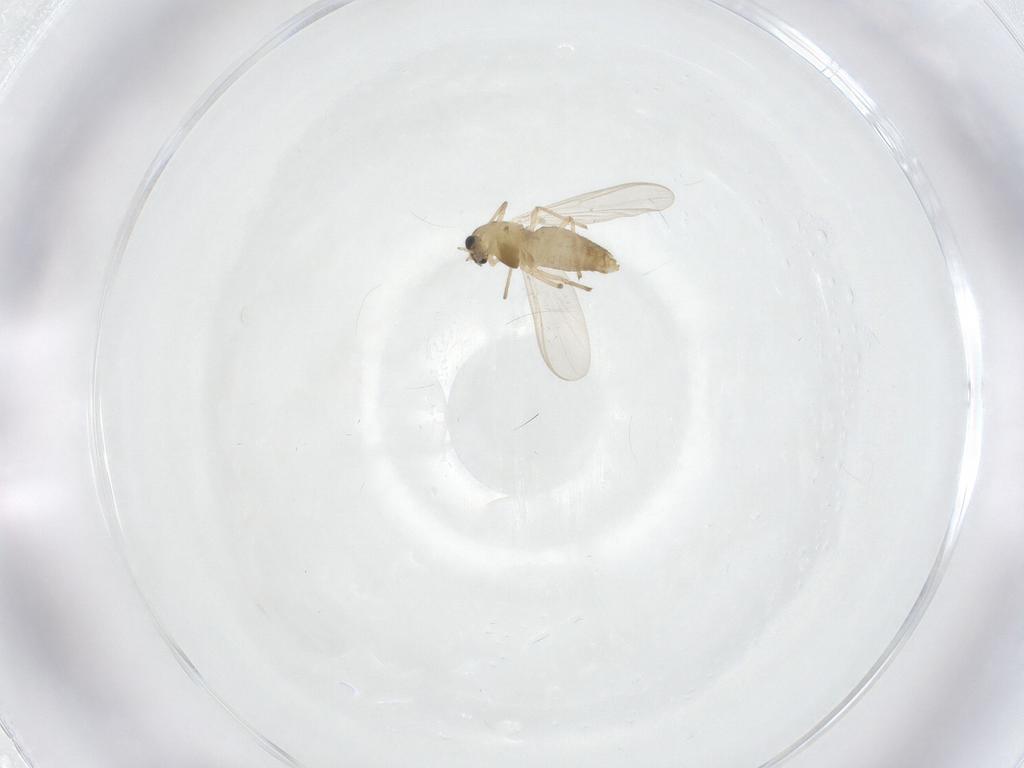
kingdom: Animalia
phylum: Arthropoda
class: Insecta
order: Diptera
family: Chironomidae
